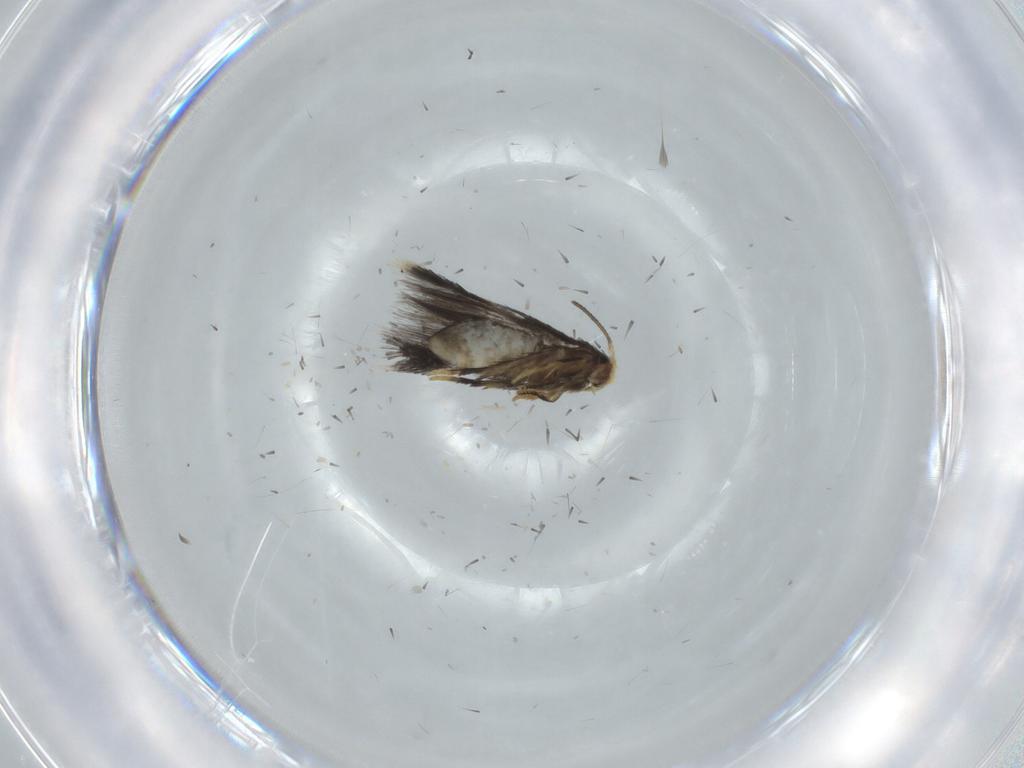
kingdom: Animalia
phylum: Arthropoda
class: Insecta
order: Lepidoptera
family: Nepticulidae
